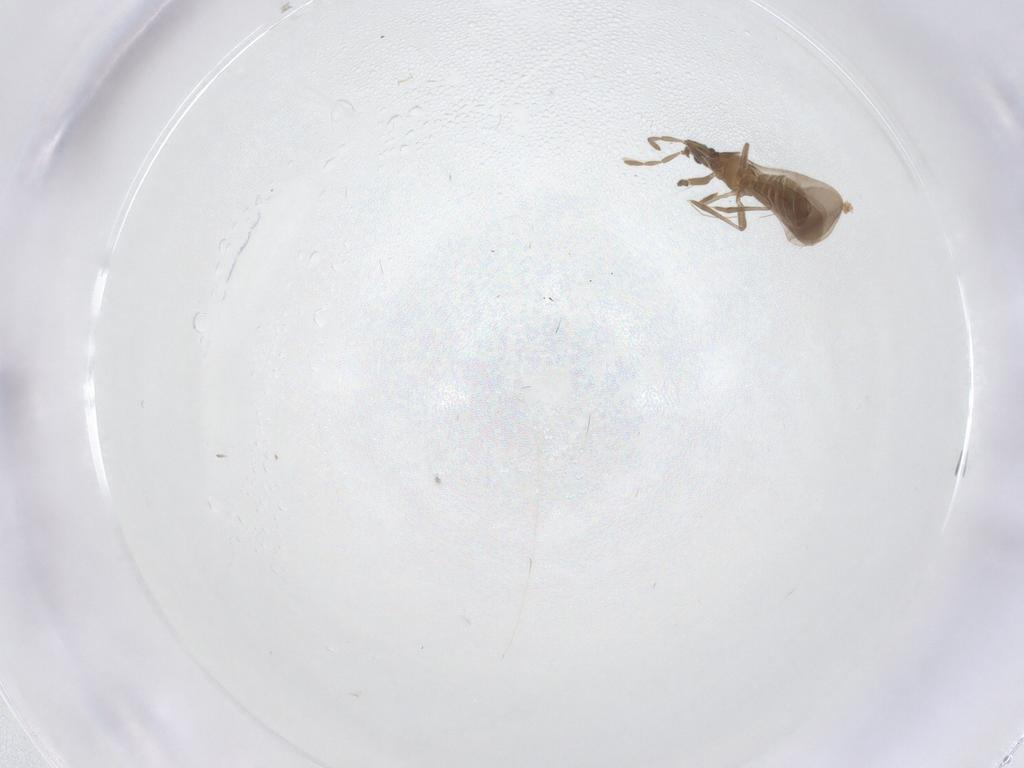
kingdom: Animalia
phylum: Arthropoda
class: Insecta
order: Hemiptera
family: Enicocephalidae
